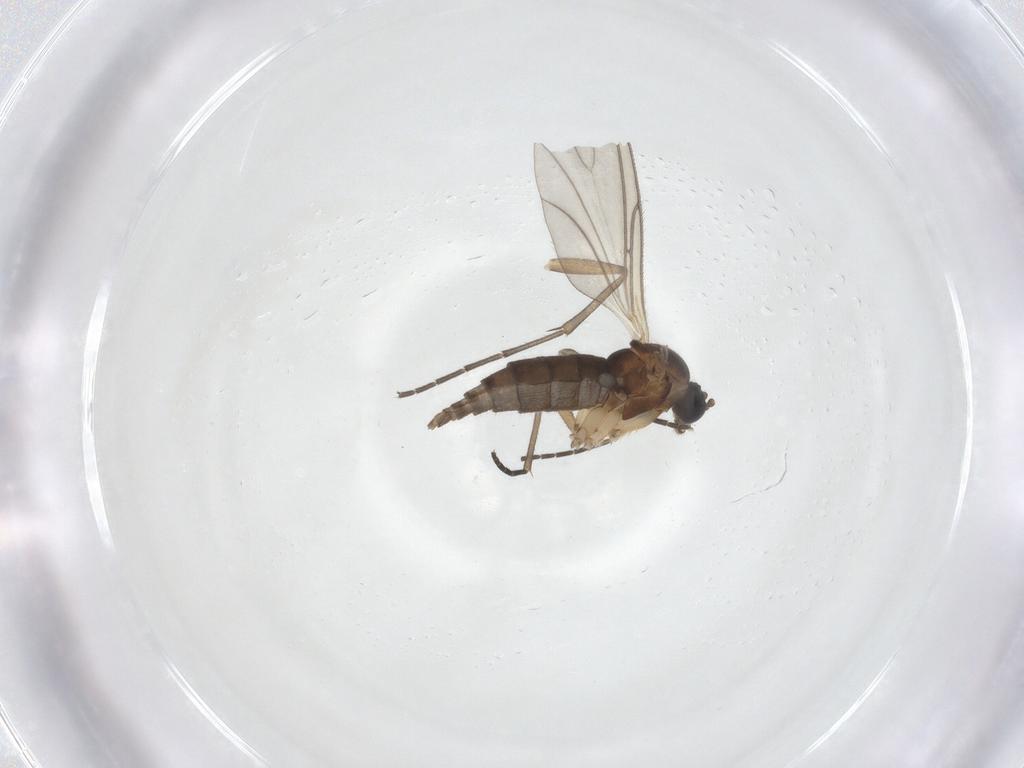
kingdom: Animalia
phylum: Arthropoda
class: Insecta
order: Diptera
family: Sciaridae
